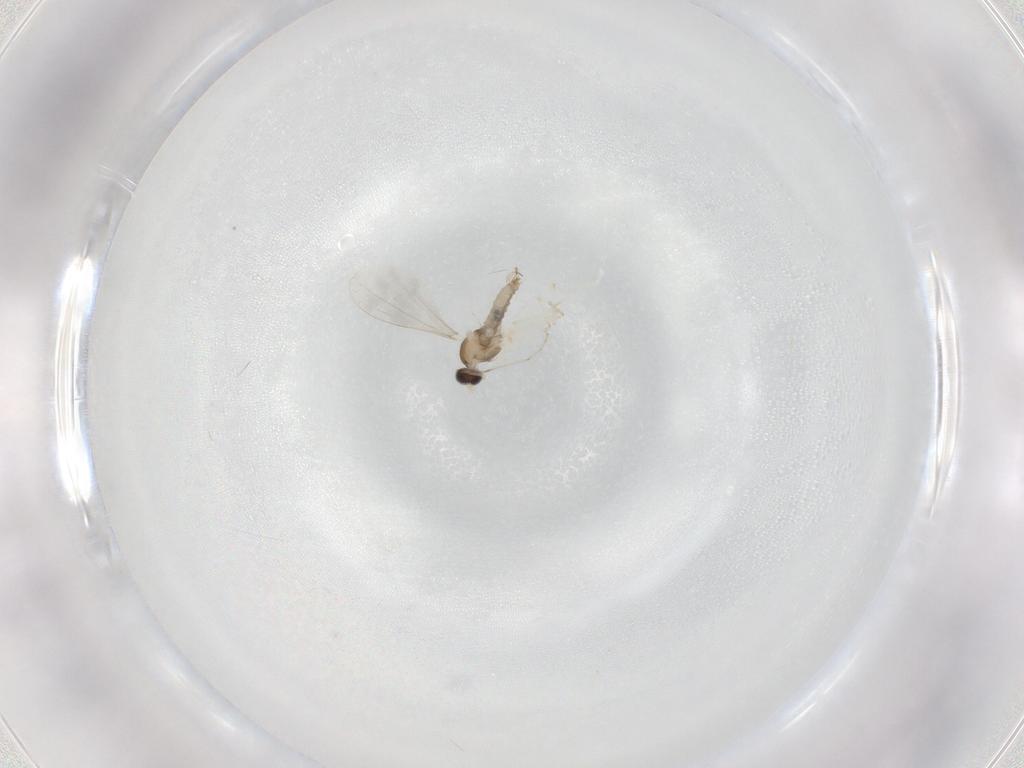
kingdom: Animalia
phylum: Arthropoda
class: Insecta
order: Diptera
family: Cecidomyiidae
